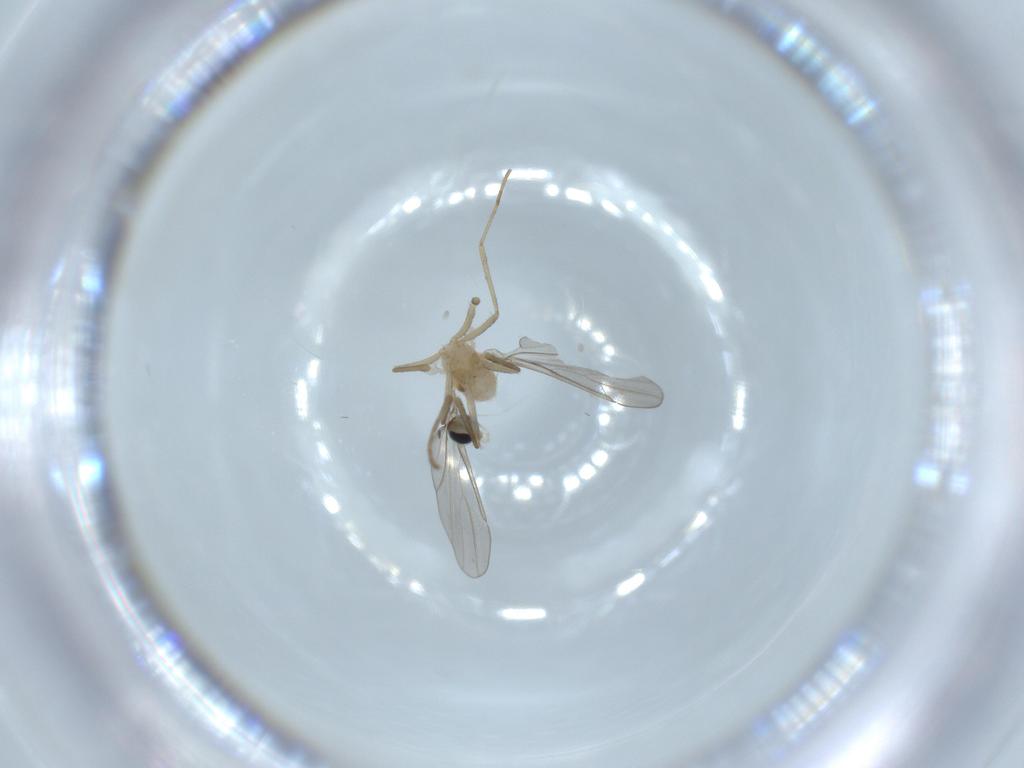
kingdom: Animalia
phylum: Arthropoda
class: Insecta
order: Diptera
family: Cecidomyiidae
